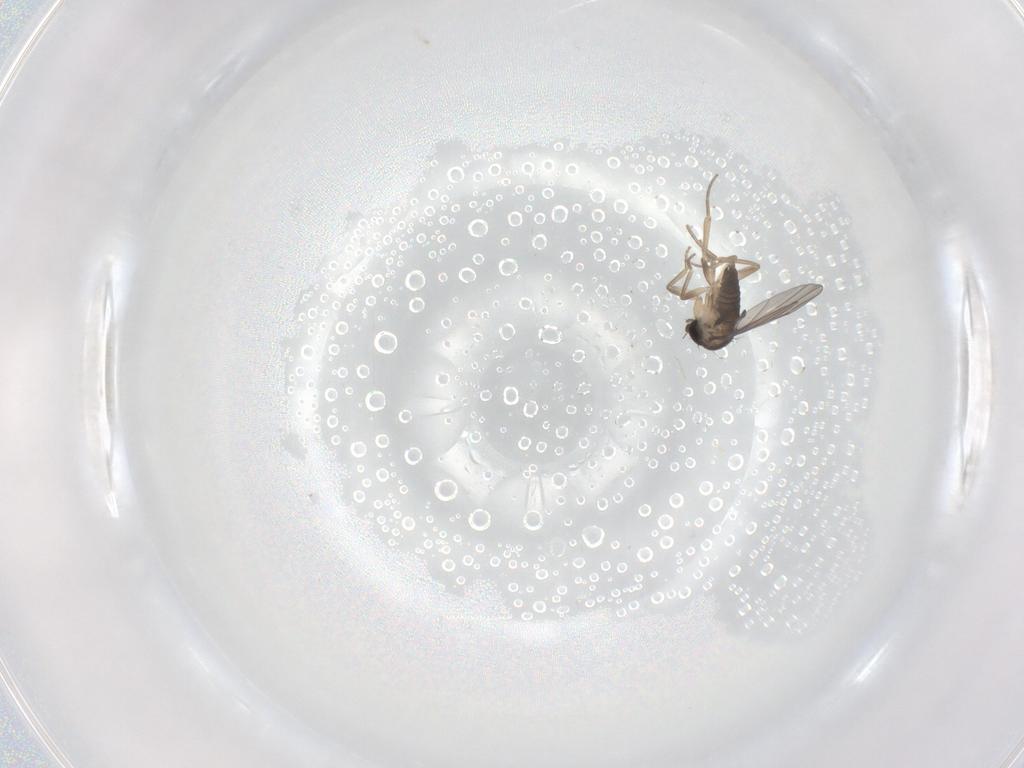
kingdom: Animalia
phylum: Arthropoda
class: Insecta
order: Diptera
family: Phoridae
